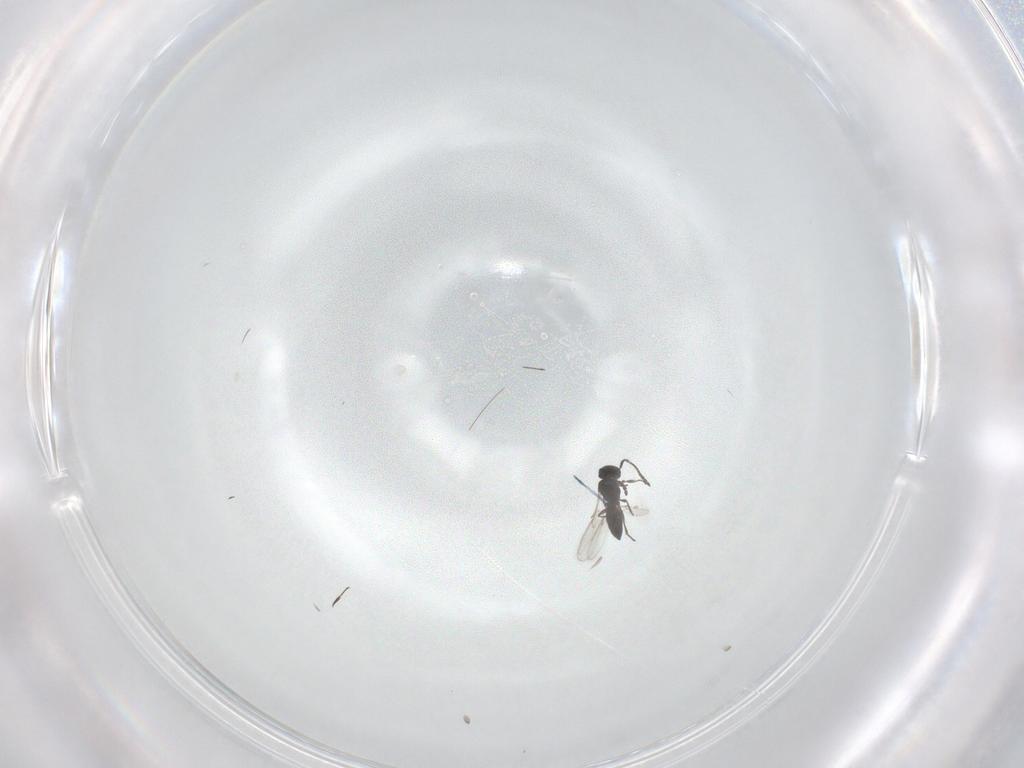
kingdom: Animalia
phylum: Arthropoda
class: Insecta
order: Hymenoptera
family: Scelionidae
